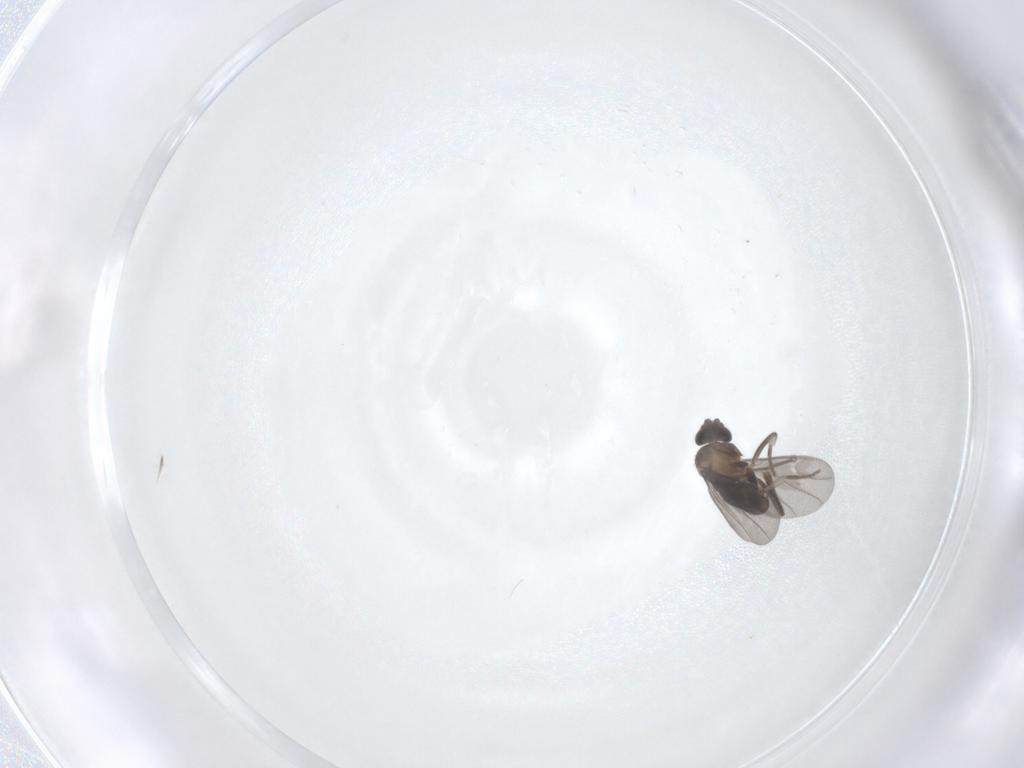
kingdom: Animalia
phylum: Arthropoda
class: Insecta
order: Diptera
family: Phoridae
